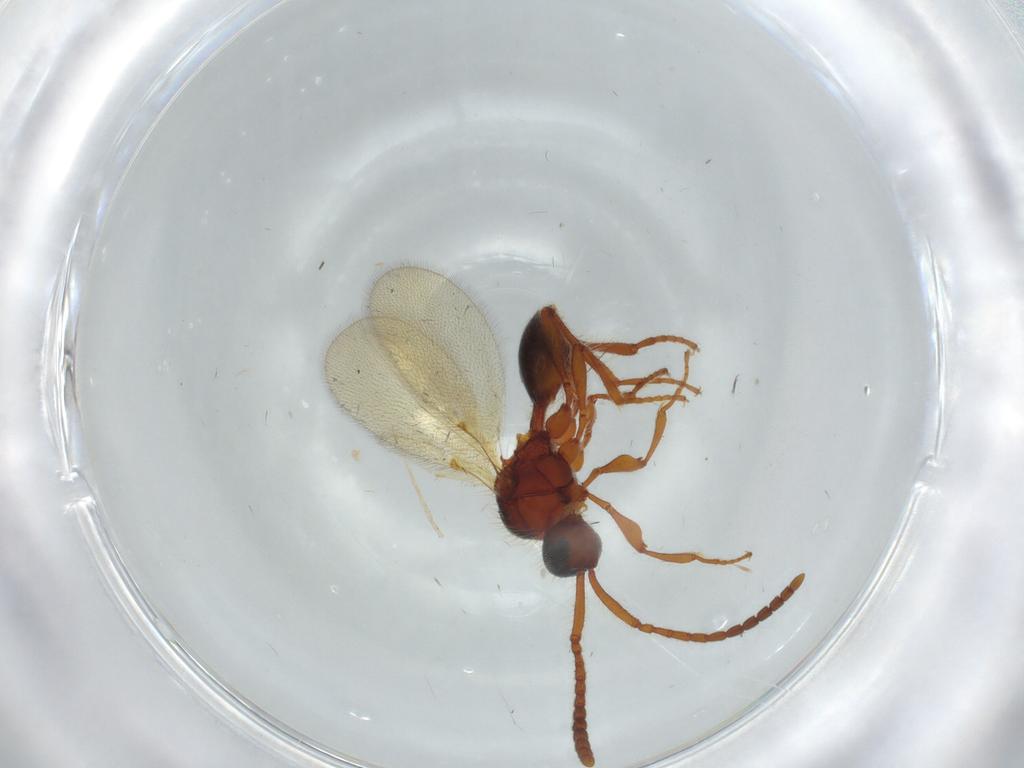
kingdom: Animalia
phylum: Arthropoda
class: Insecta
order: Hymenoptera
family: Diapriidae
